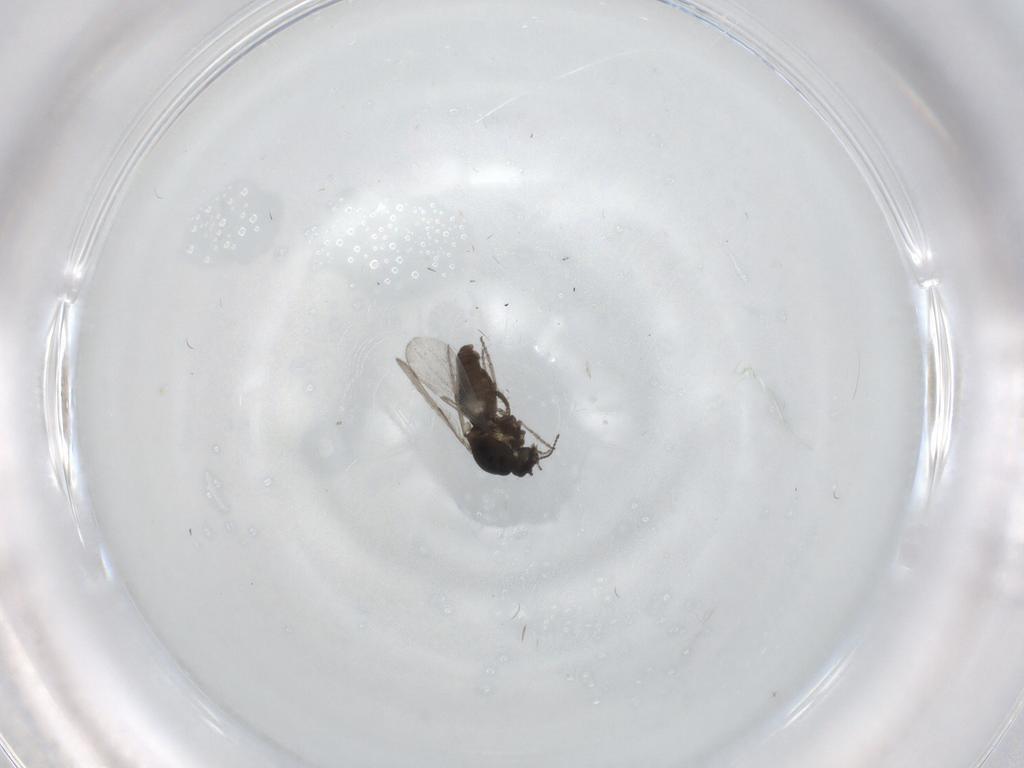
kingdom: Animalia
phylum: Arthropoda
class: Insecta
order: Diptera
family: Ceratopogonidae
